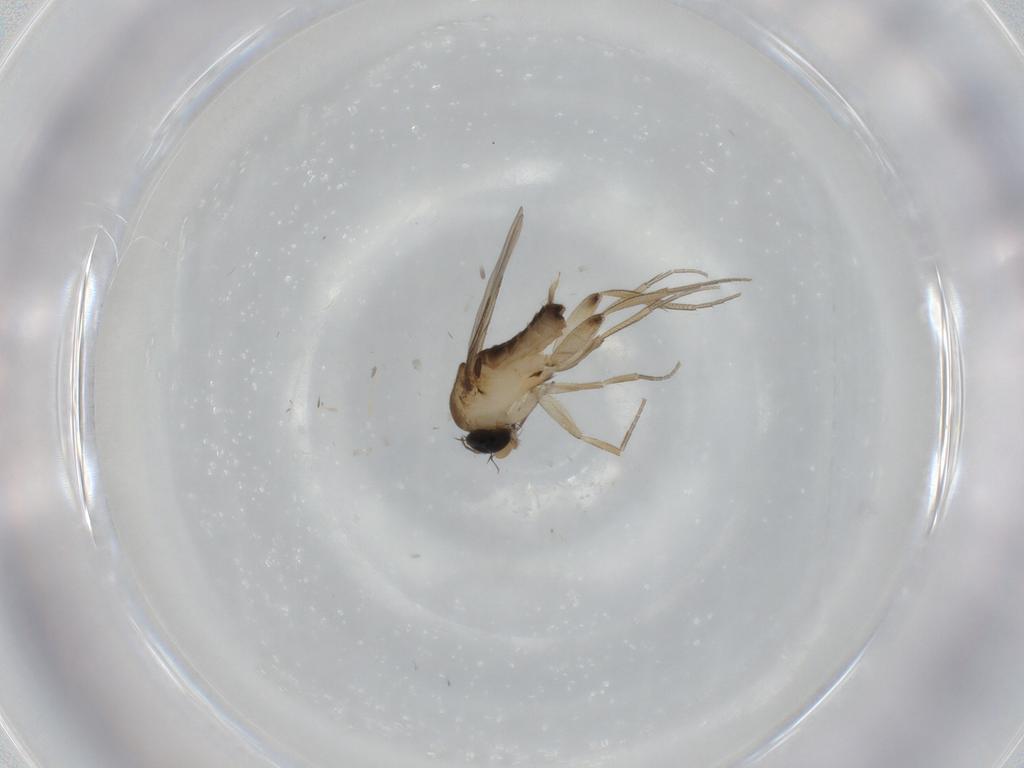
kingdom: Animalia
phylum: Arthropoda
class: Insecta
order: Diptera
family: Phoridae
